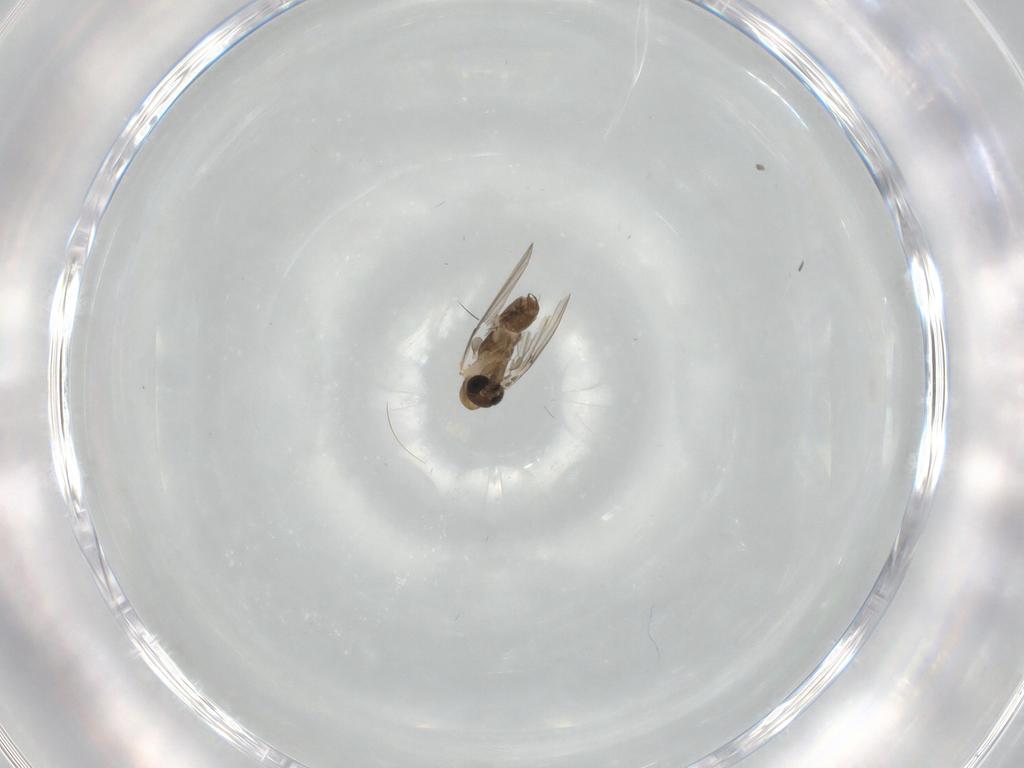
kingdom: Animalia
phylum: Arthropoda
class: Insecta
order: Diptera
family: Psychodidae
